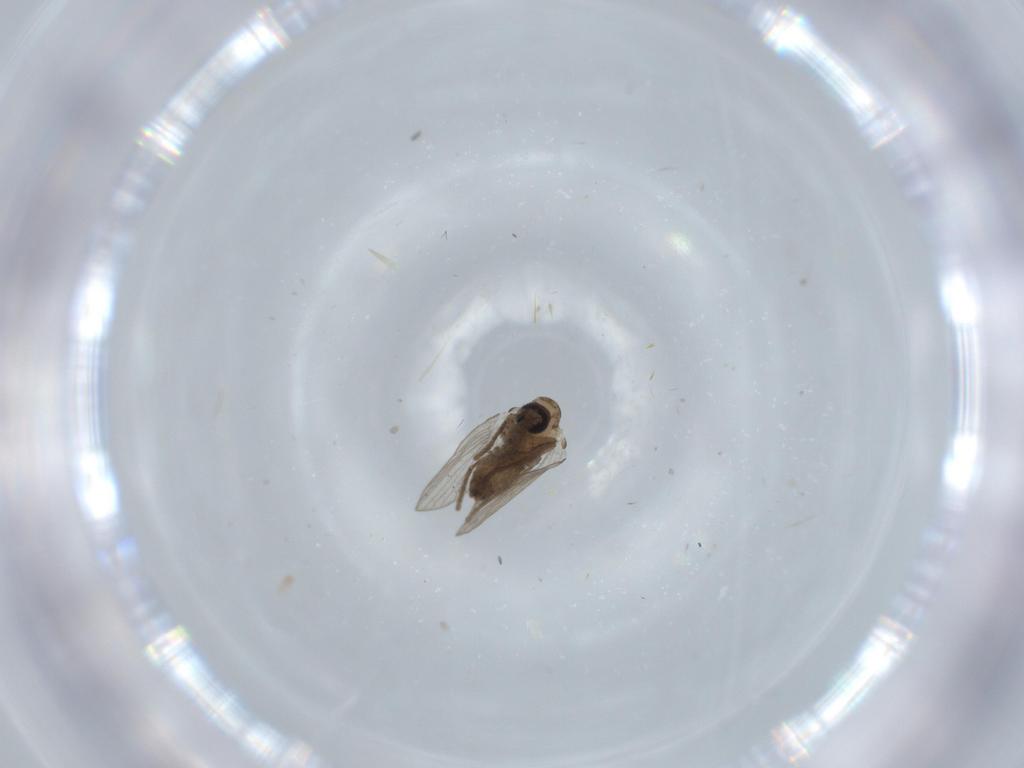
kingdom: Animalia
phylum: Arthropoda
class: Insecta
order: Diptera
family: Psychodidae
